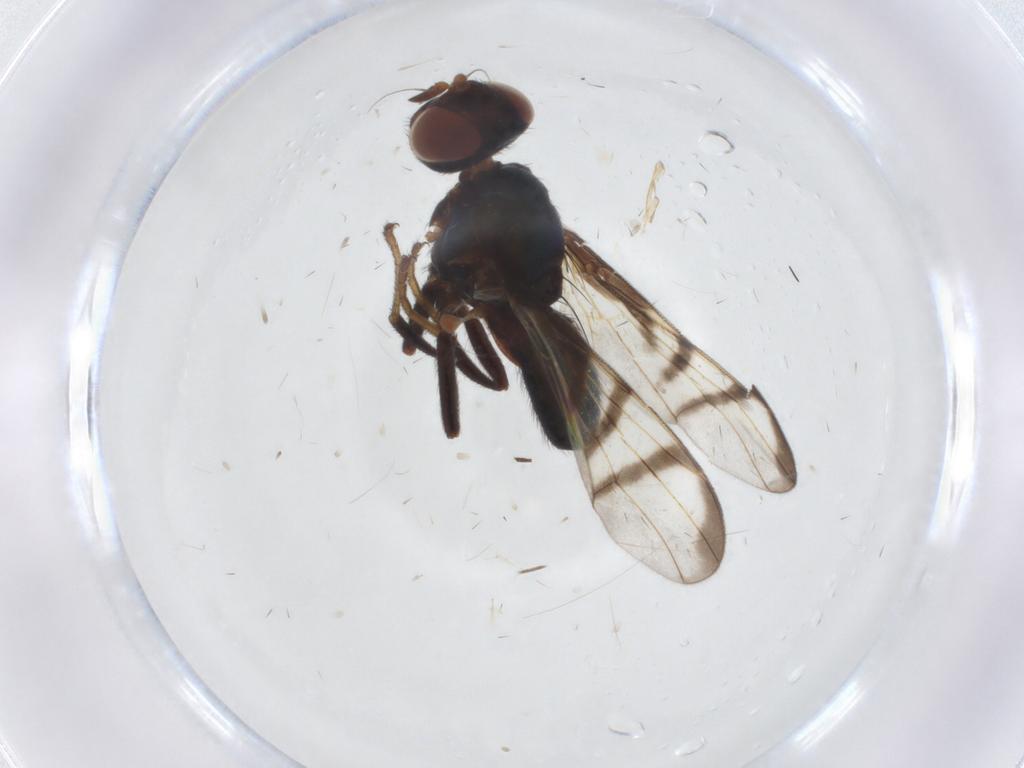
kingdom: Animalia
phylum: Arthropoda
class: Insecta
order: Diptera
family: Platystomatidae
